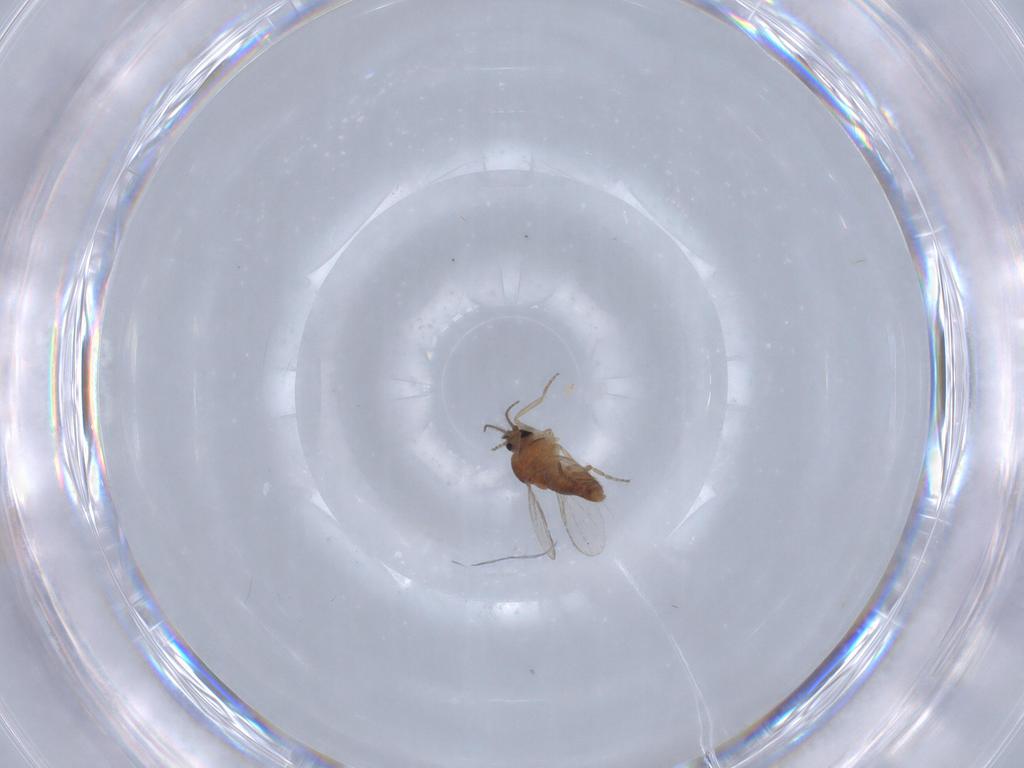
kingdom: Animalia
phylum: Arthropoda
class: Insecta
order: Diptera
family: Ceratopogonidae
